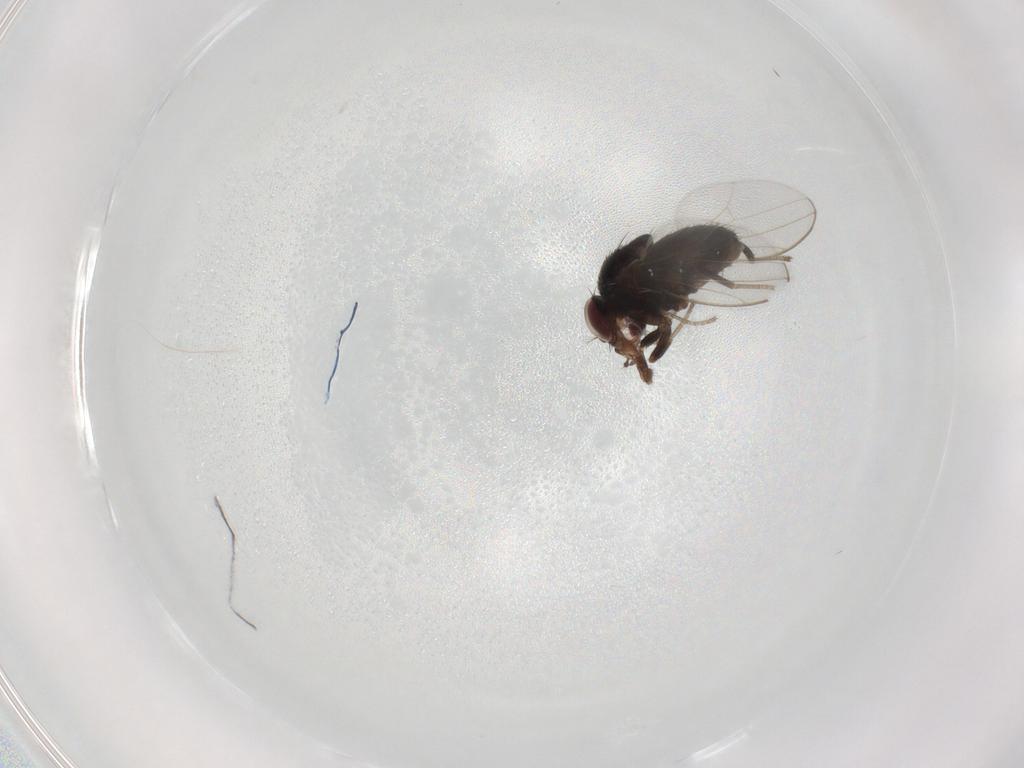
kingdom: Animalia
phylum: Arthropoda
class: Insecta
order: Diptera
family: Drosophilidae
